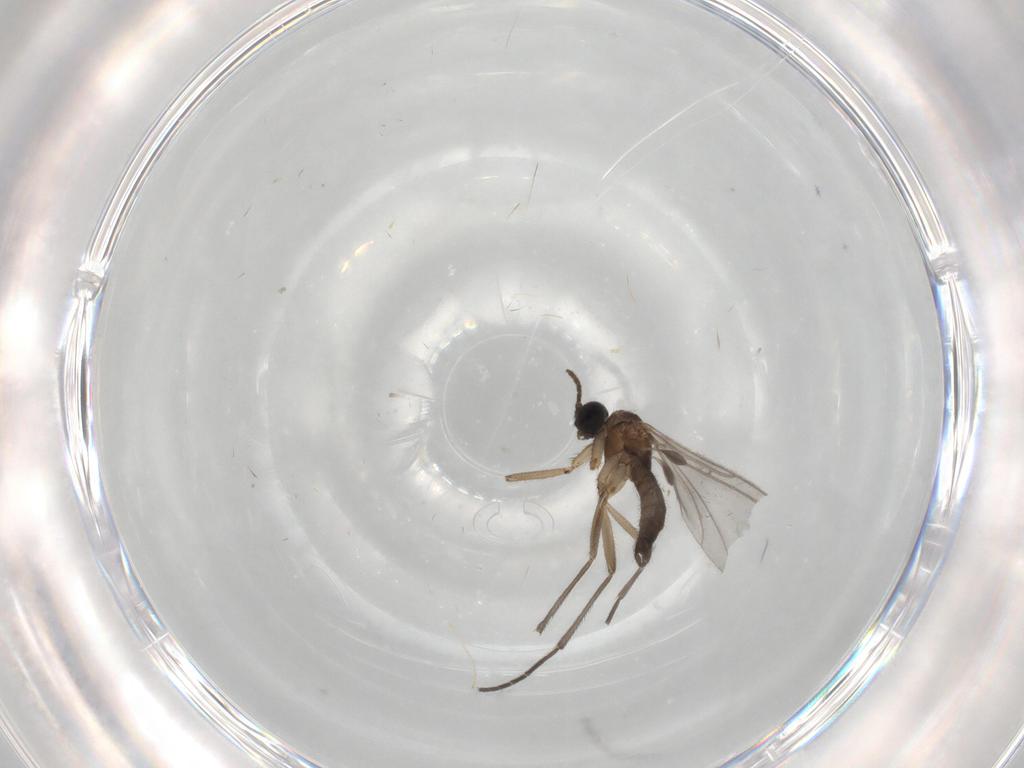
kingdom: Animalia
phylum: Arthropoda
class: Insecta
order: Diptera
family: Sciaridae
